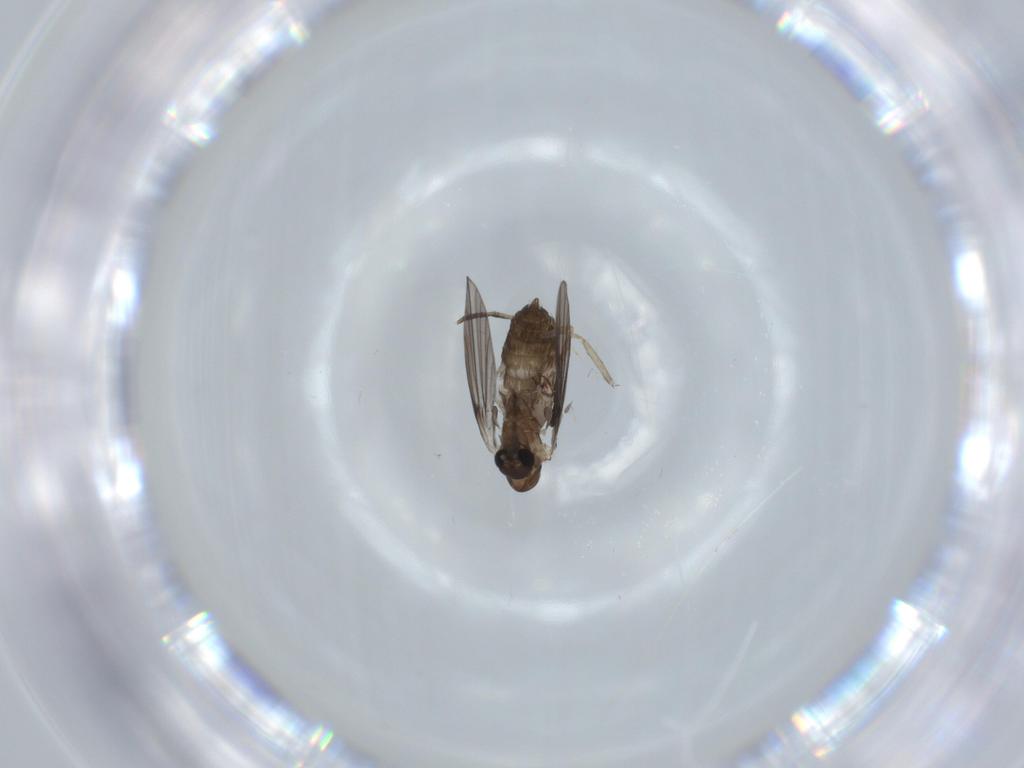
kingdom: Animalia
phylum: Arthropoda
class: Insecta
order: Diptera
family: Psychodidae
